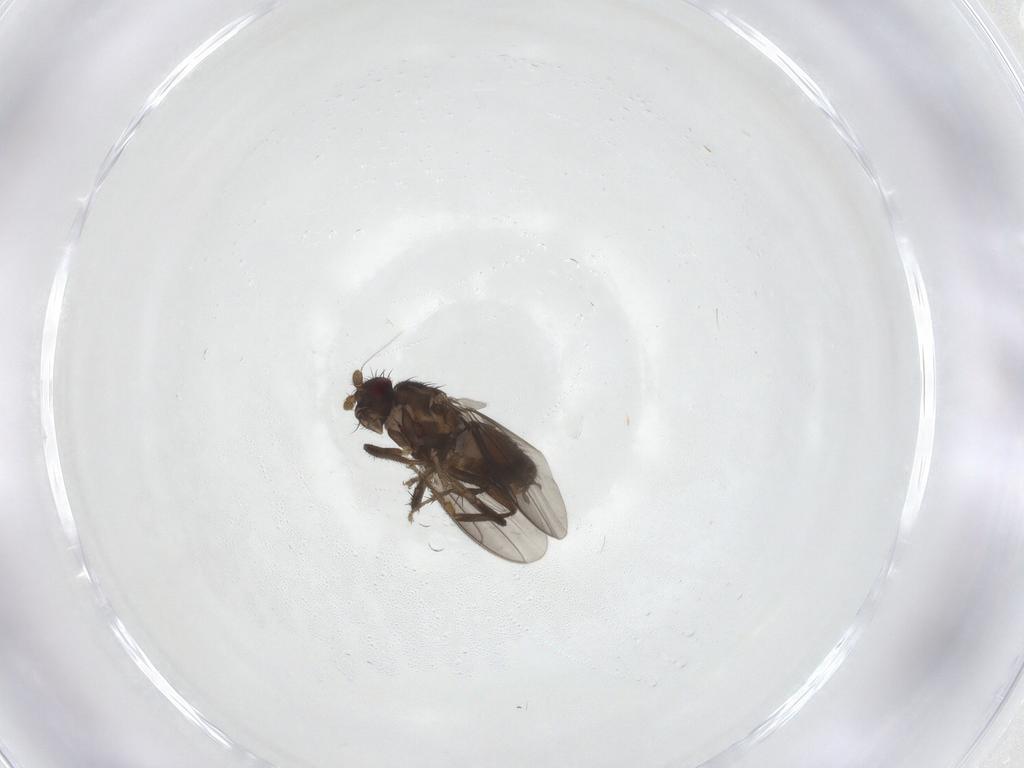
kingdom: Animalia
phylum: Arthropoda
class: Insecta
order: Diptera
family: Sphaeroceridae
